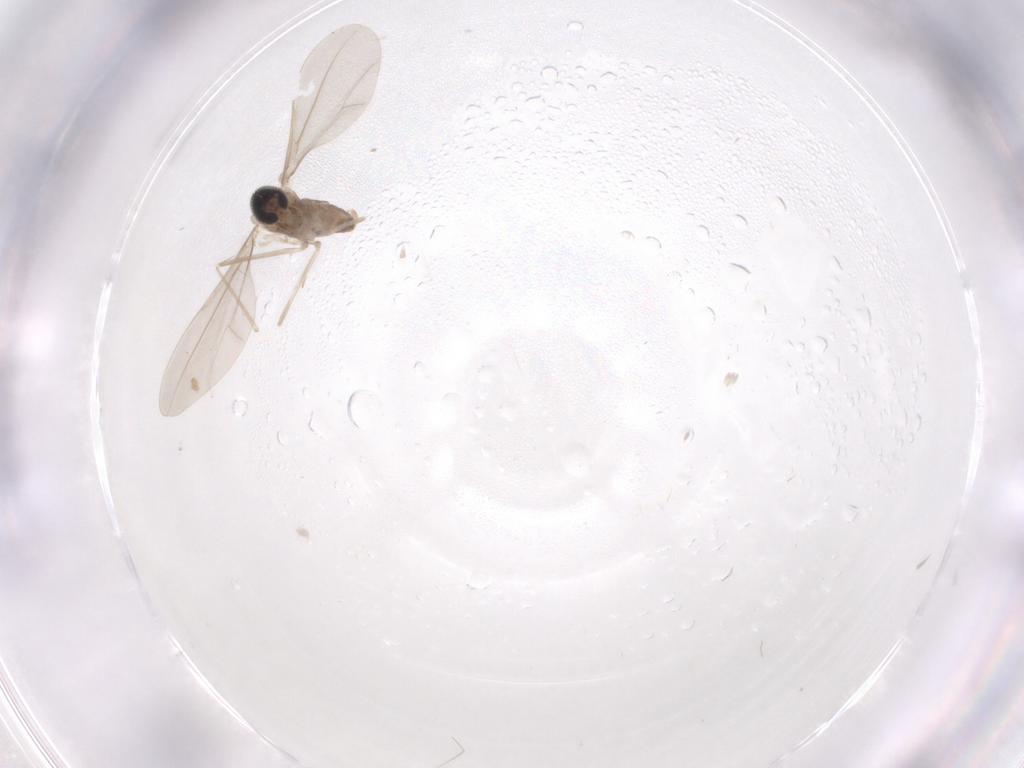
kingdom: Animalia
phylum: Arthropoda
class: Insecta
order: Diptera
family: Cecidomyiidae
